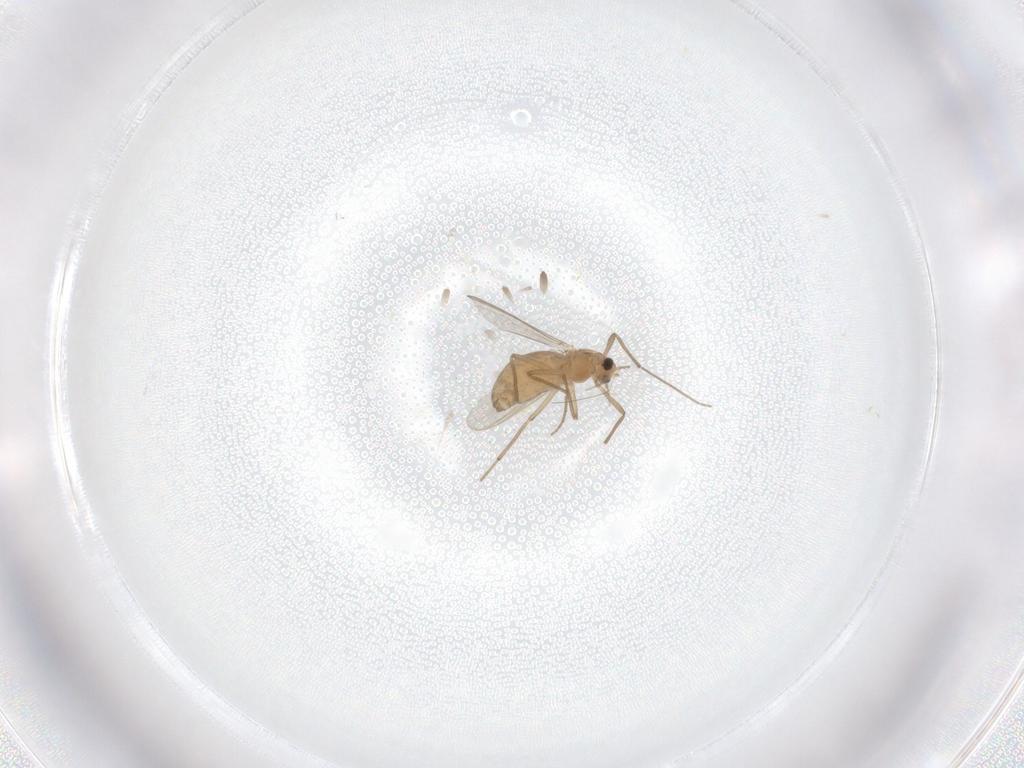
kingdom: Animalia
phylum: Arthropoda
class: Insecta
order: Diptera
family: Chironomidae
